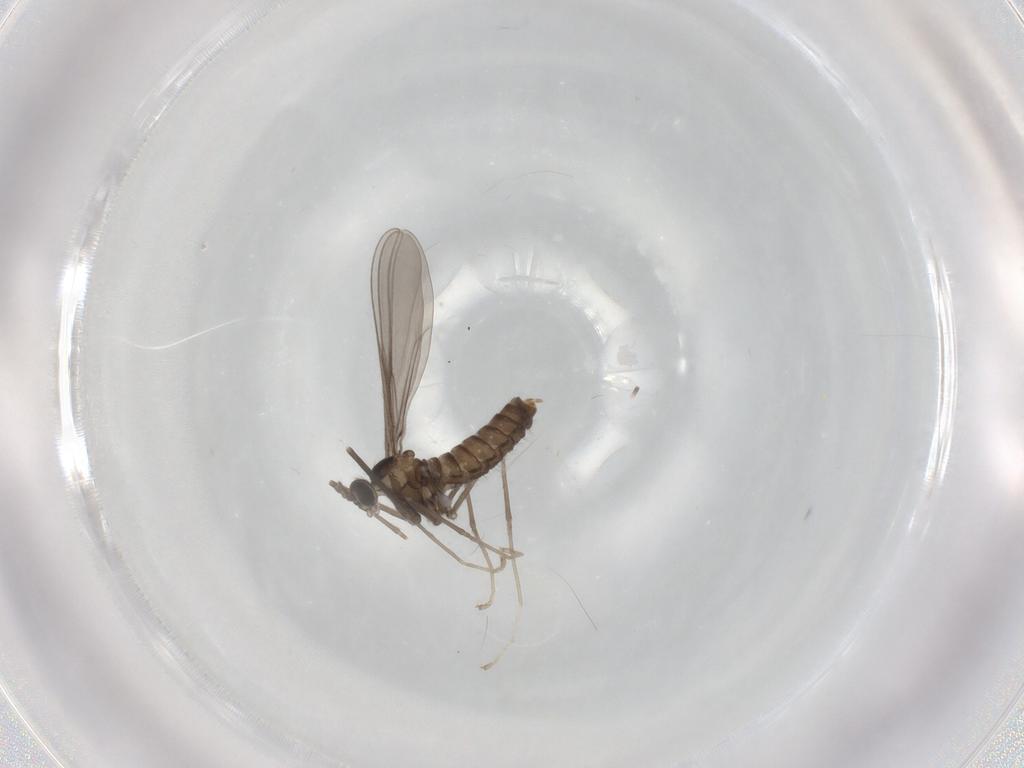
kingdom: Animalia
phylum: Arthropoda
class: Insecta
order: Diptera
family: Cecidomyiidae
